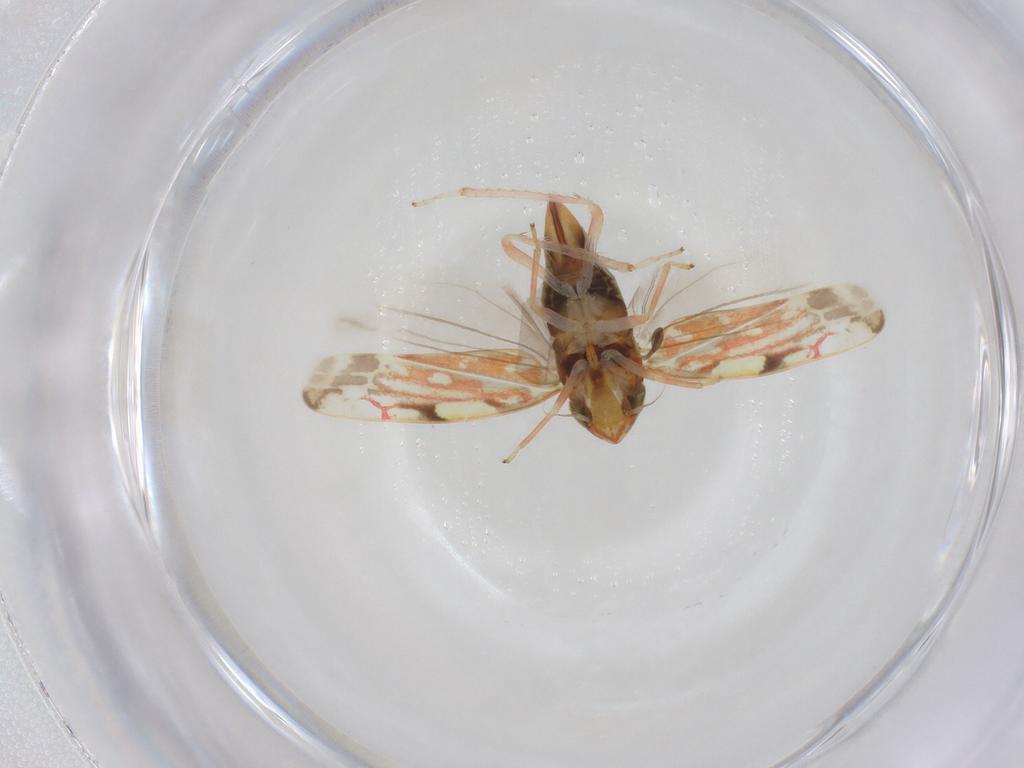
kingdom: Animalia
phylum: Arthropoda
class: Insecta
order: Hemiptera
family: Cicadellidae
